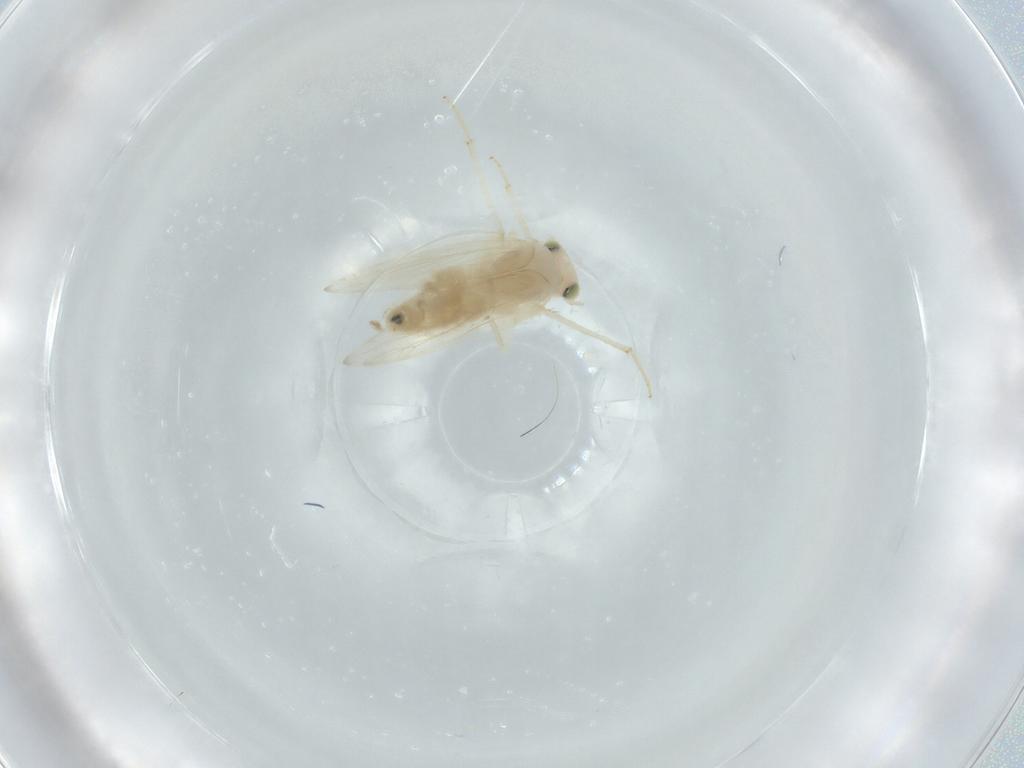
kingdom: Animalia
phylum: Arthropoda
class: Insecta
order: Psocodea
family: Lepidopsocidae
